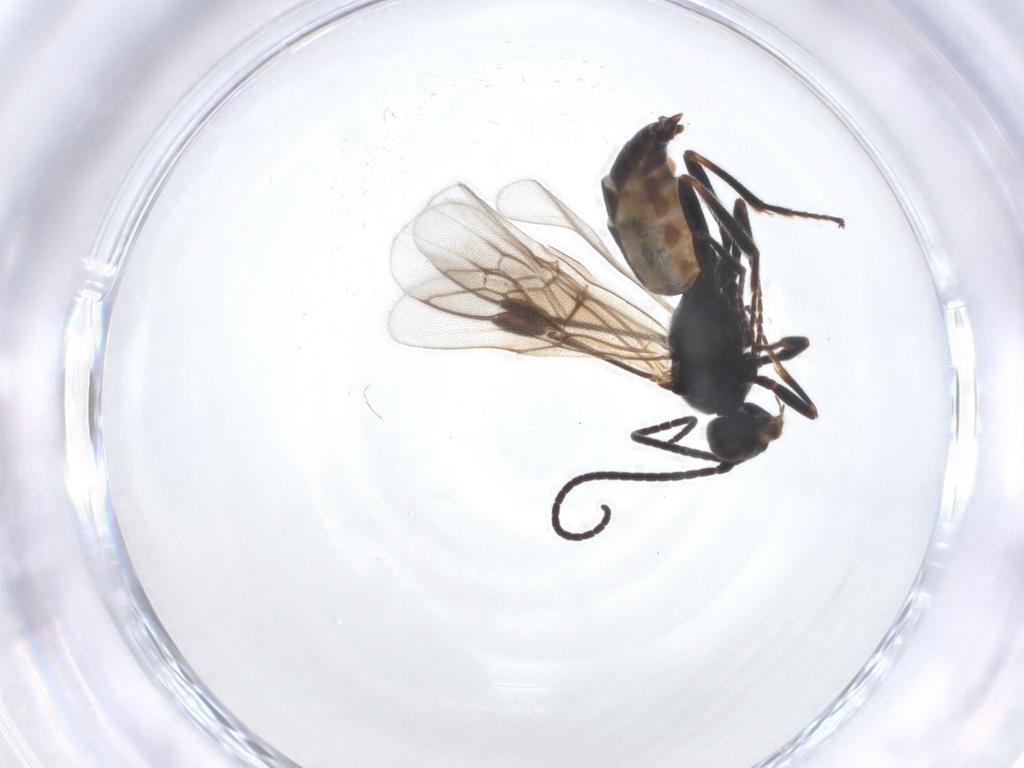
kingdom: Animalia
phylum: Arthropoda
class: Insecta
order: Hymenoptera
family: Braconidae
